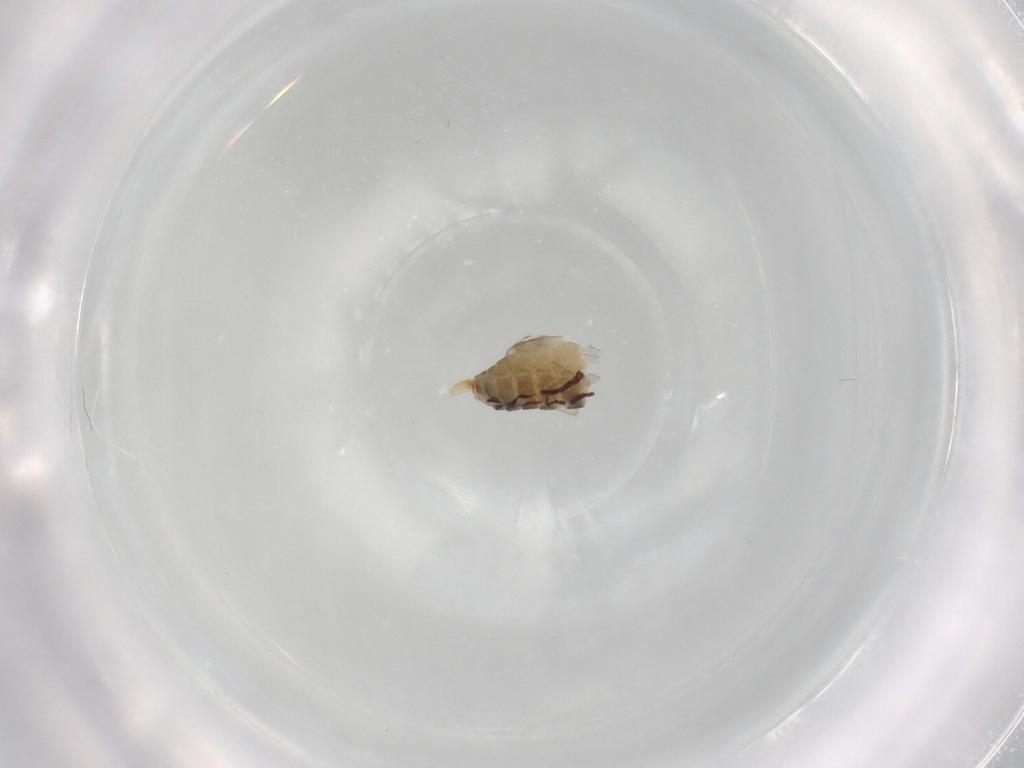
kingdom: Animalia
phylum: Arthropoda
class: Insecta
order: Diptera
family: Psychodidae
